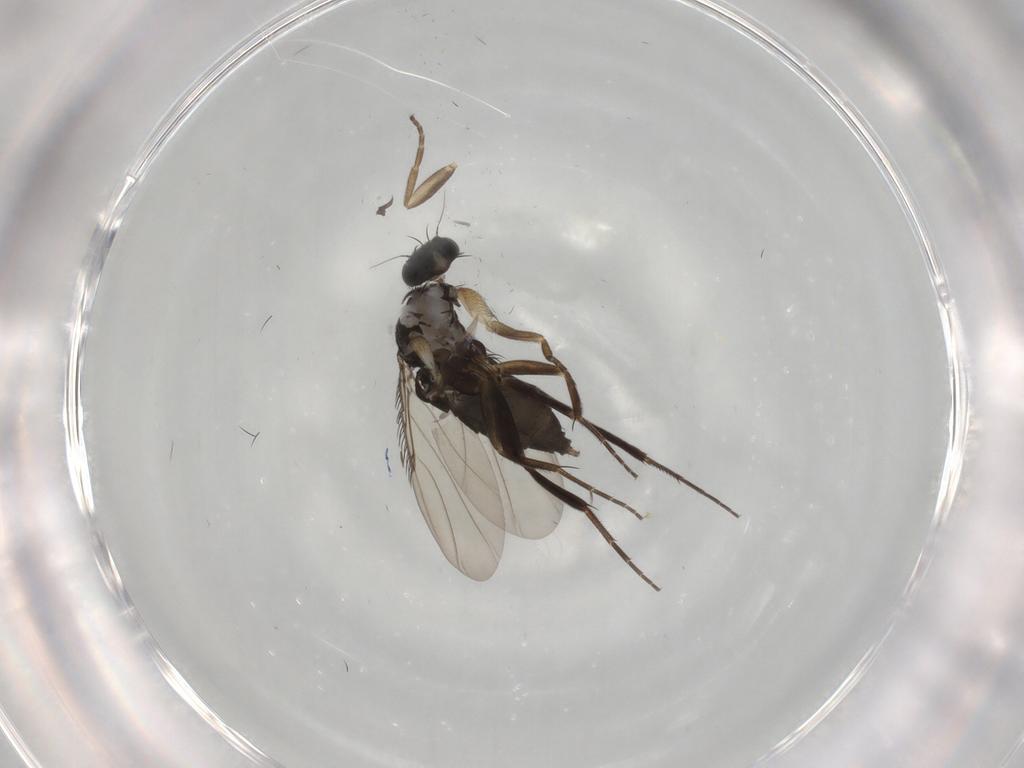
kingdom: Animalia
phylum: Arthropoda
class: Insecta
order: Diptera
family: Phoridae
